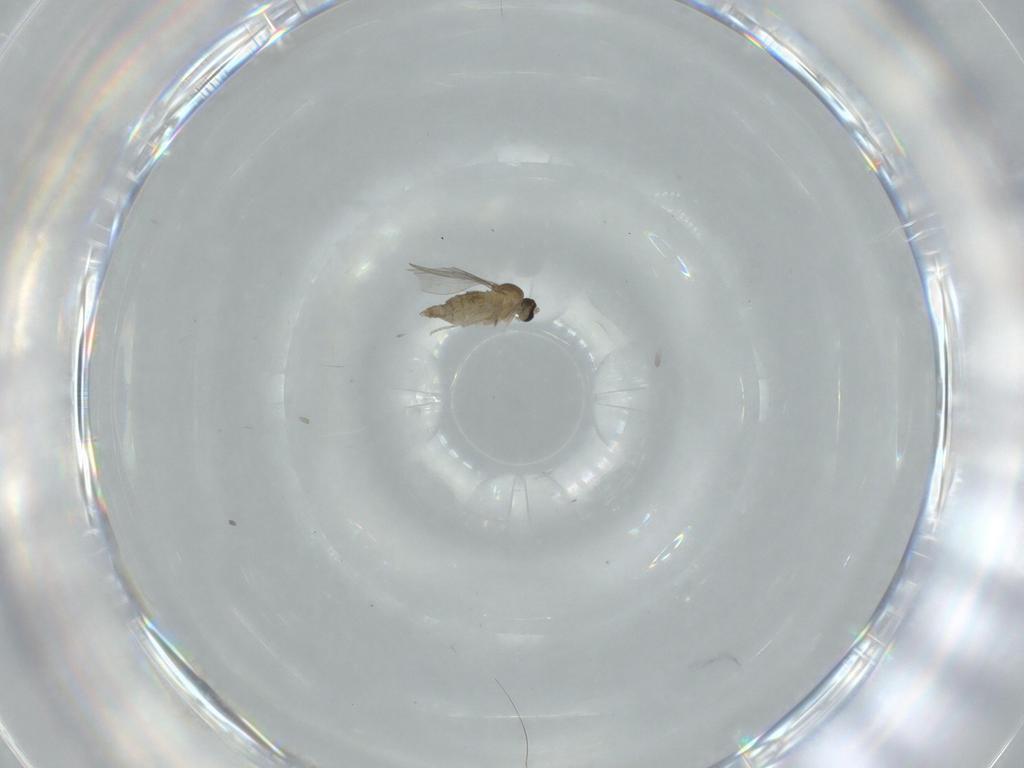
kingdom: Animalia
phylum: Arthropoda
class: Insecta
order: Diptera
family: Cecidomyiidae
